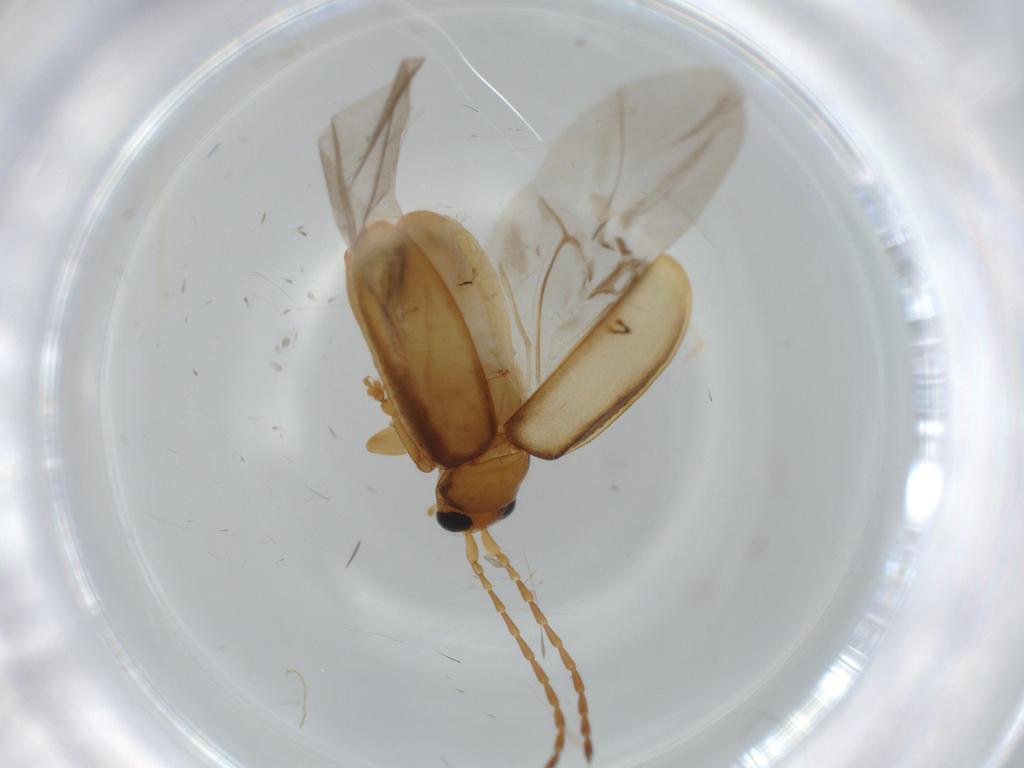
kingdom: Animalia
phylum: Arthropoda
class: Insecta
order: Coleoptera
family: Chrysomelidae
